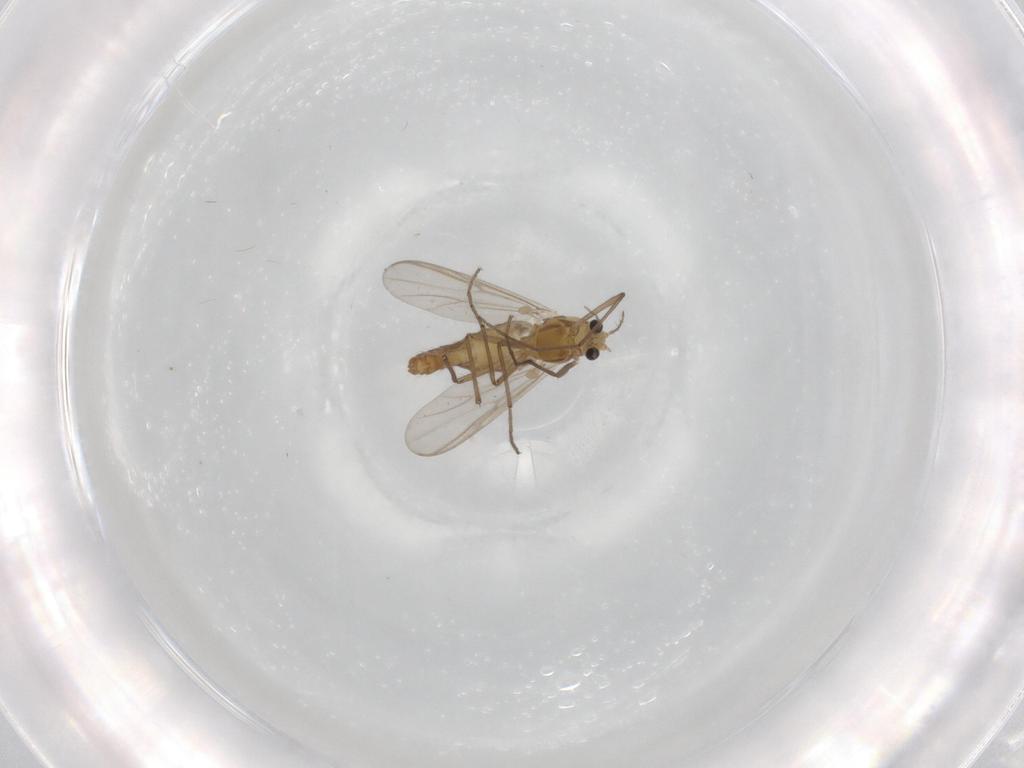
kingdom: Animalia
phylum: Arthropoda
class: Insecta
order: Diptera
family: Chironomidae
